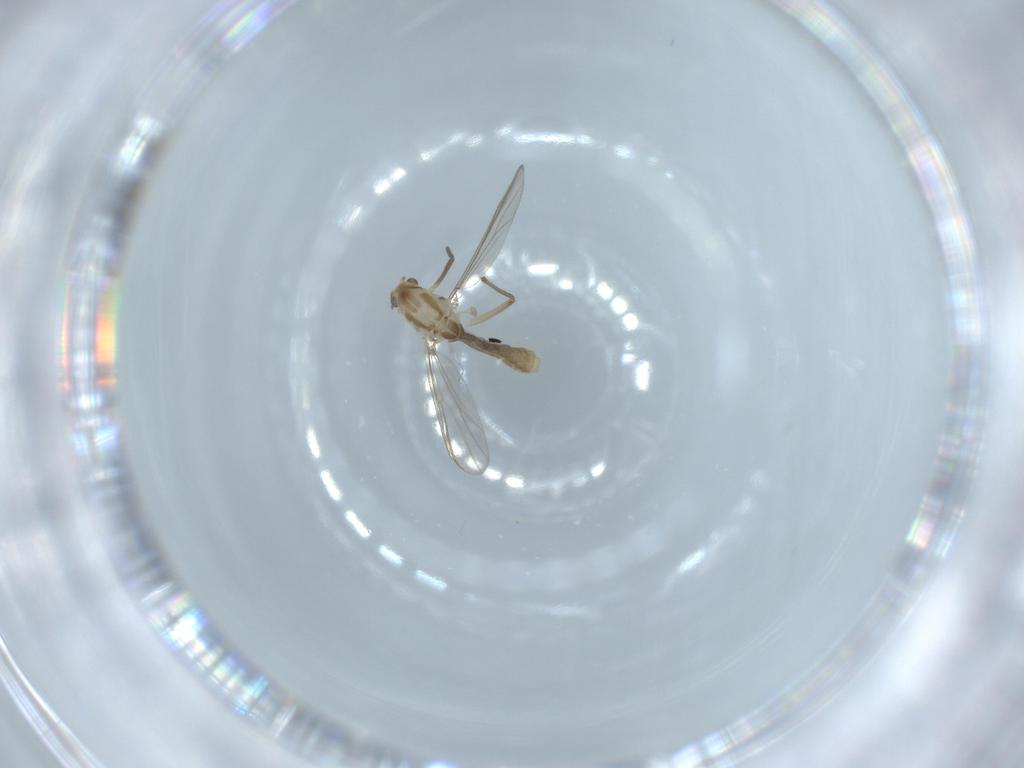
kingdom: Animalia
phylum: Arthropoda
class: Insecta
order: Diptera
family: Chironomidae
